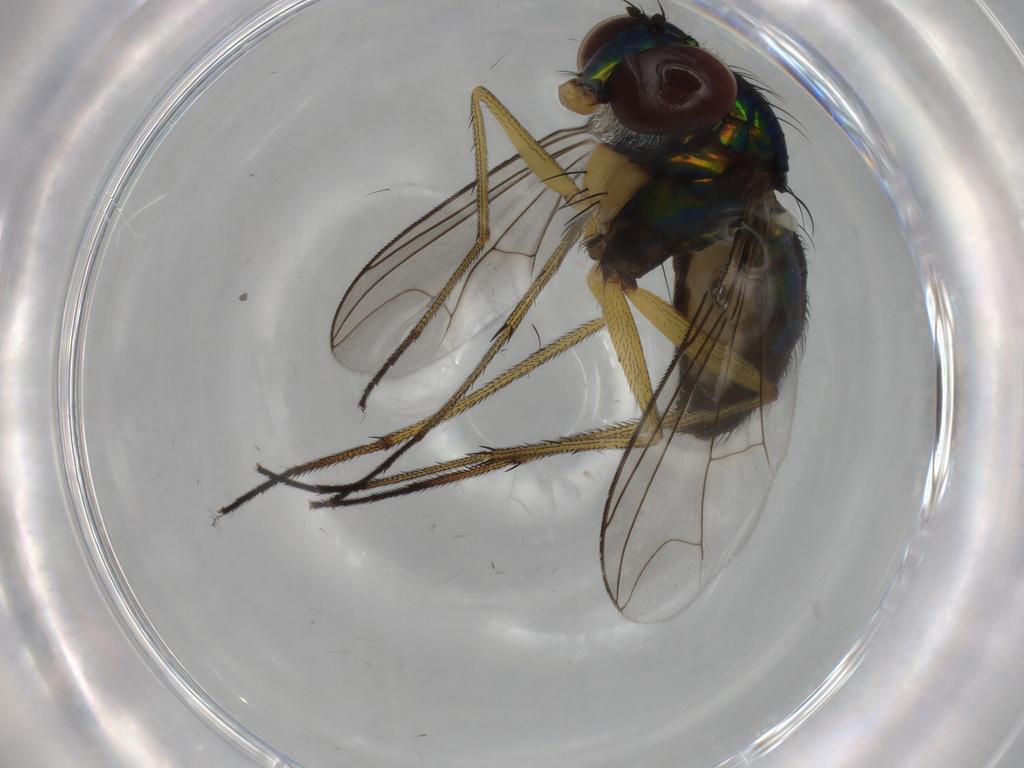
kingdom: Animalia
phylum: Arthropoda
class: Insecta
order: Diptera
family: Dolichopodidae
